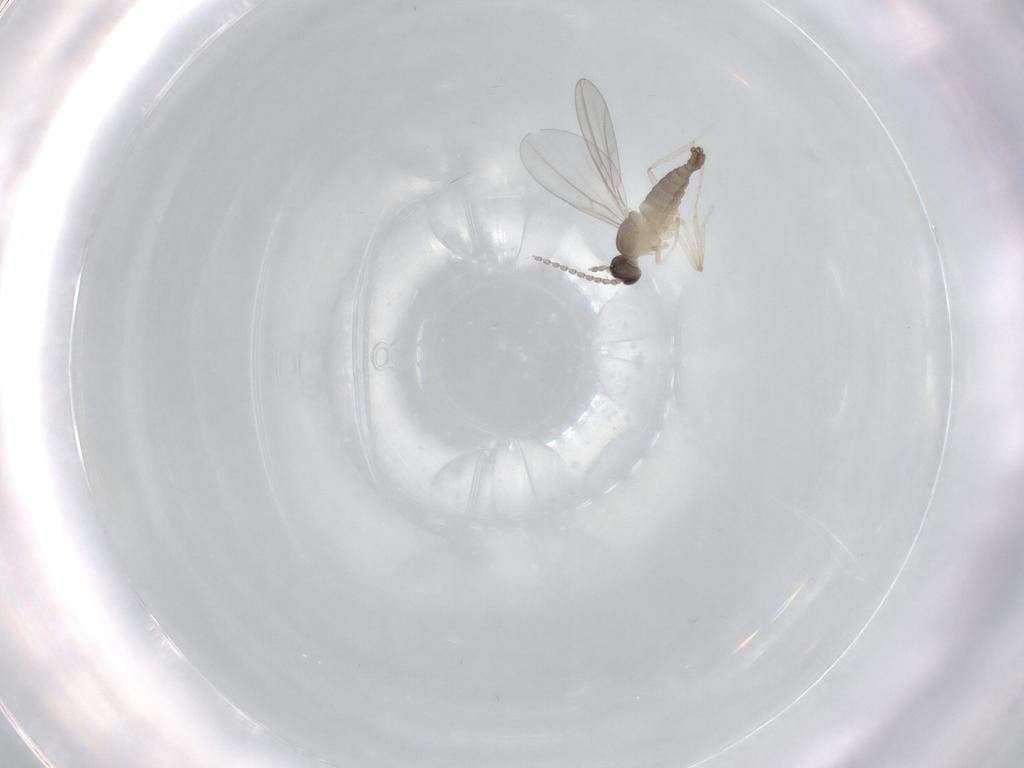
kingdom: Animalia
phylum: Arthropoda
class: Insecta
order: Diptera
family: Cecidomyiidae
